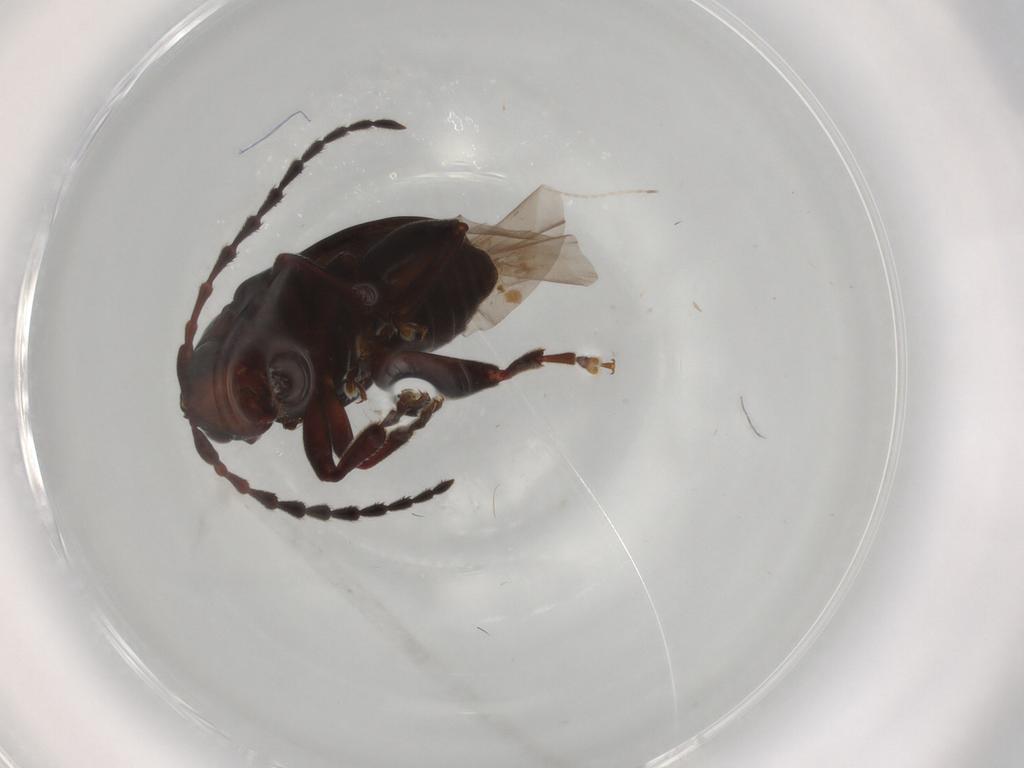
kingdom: Animalia
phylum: Arthropoda
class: Insecta
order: Coleoptera
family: Chrysomelidae
